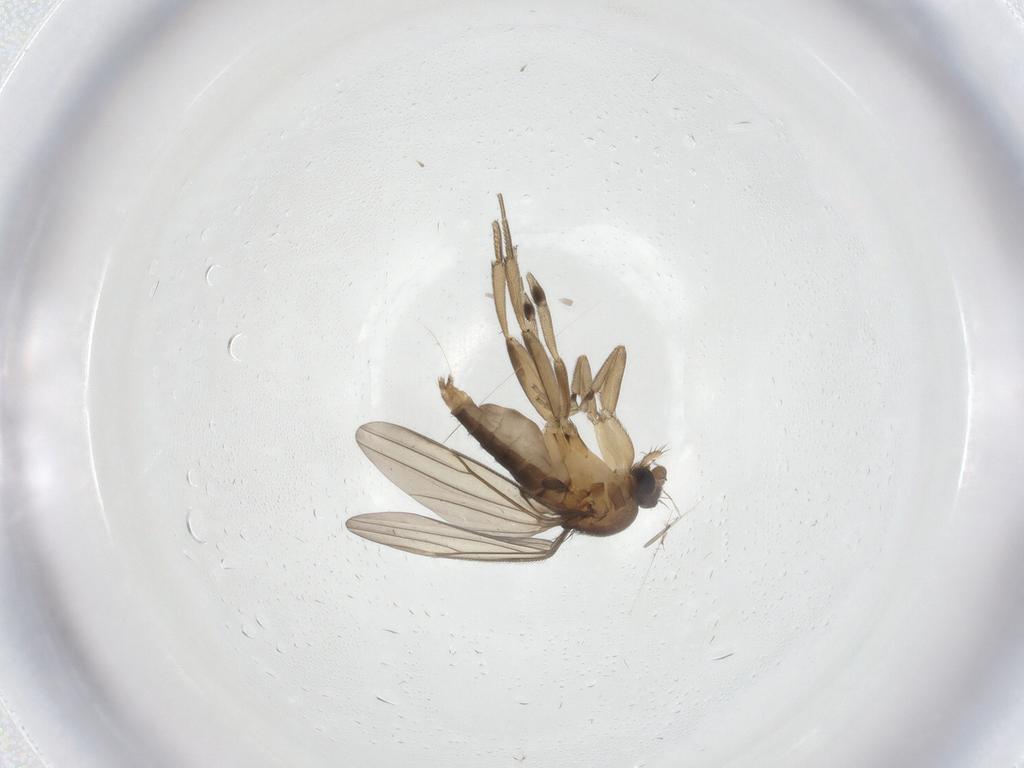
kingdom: Animalia
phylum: Arthropoda
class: Insecta
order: Diptera
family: Phoridae
